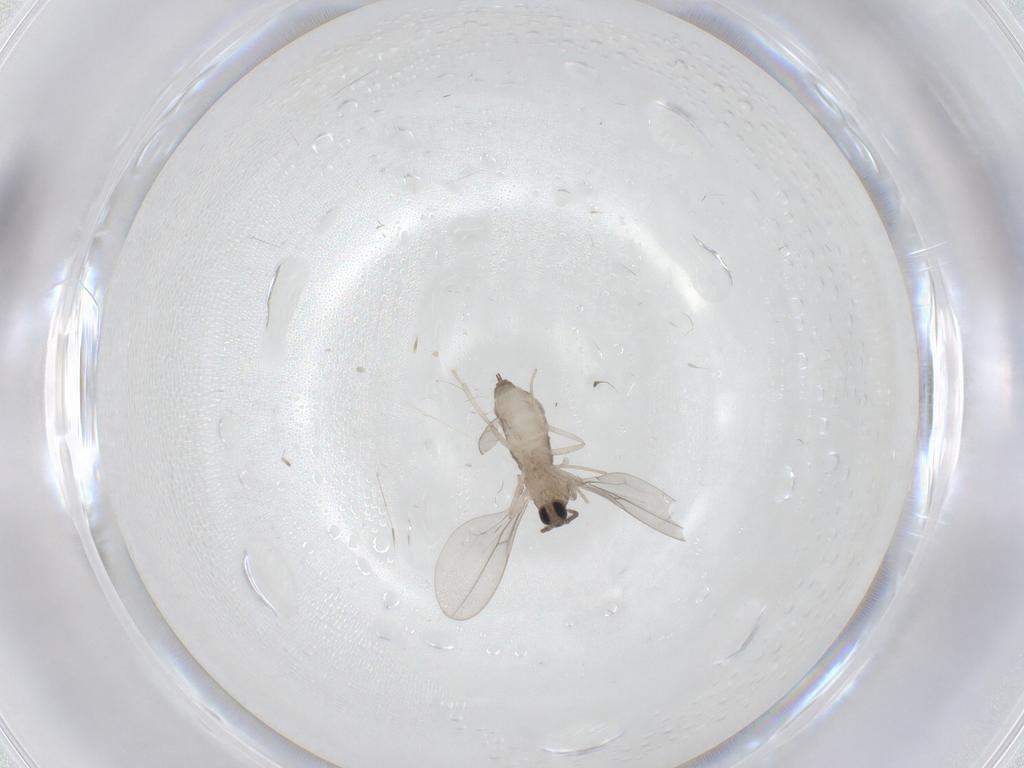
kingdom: Animalia
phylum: Arthropoda
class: Insecta
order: Diptera
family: Cecidomyiidae
